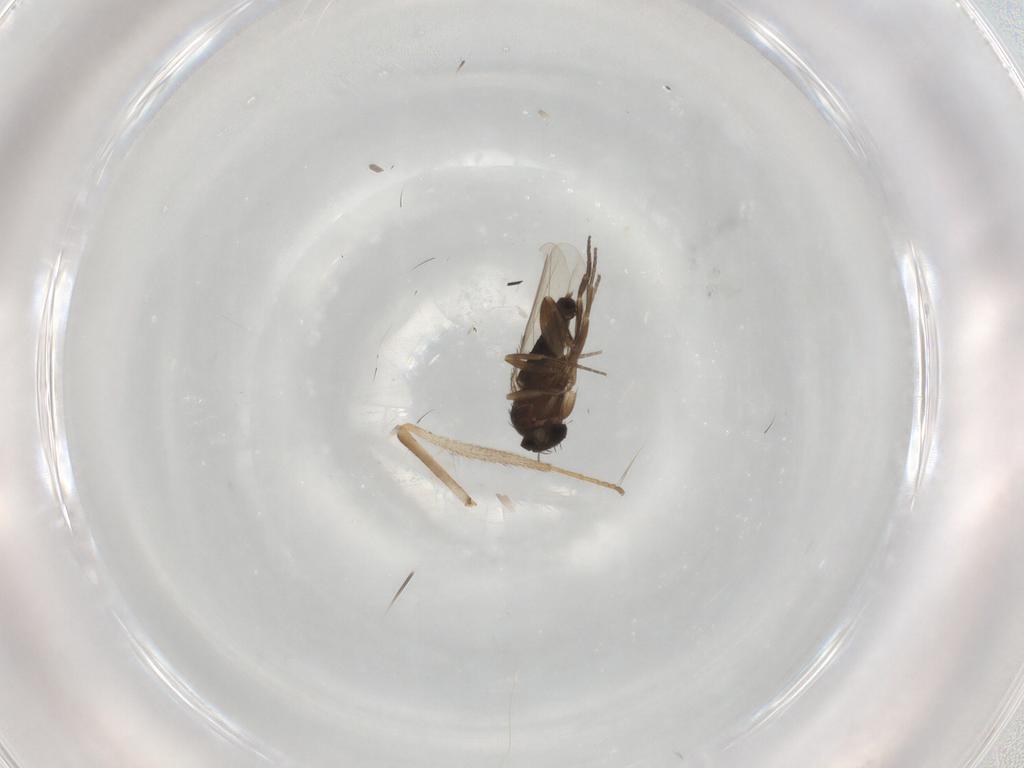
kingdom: Animalia
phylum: Arthropoda
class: Insecta
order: Diptera
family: Phoridae
